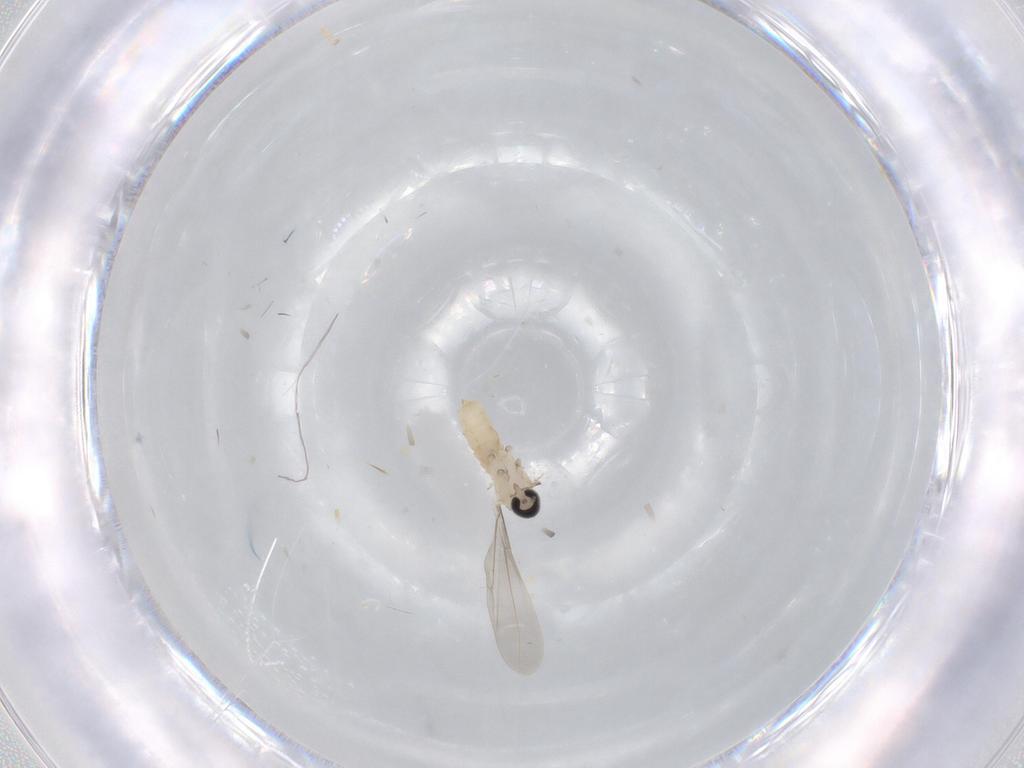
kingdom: Animalia
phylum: Arthropoda
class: Insecta
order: Diptera
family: Cecidomyiidae
